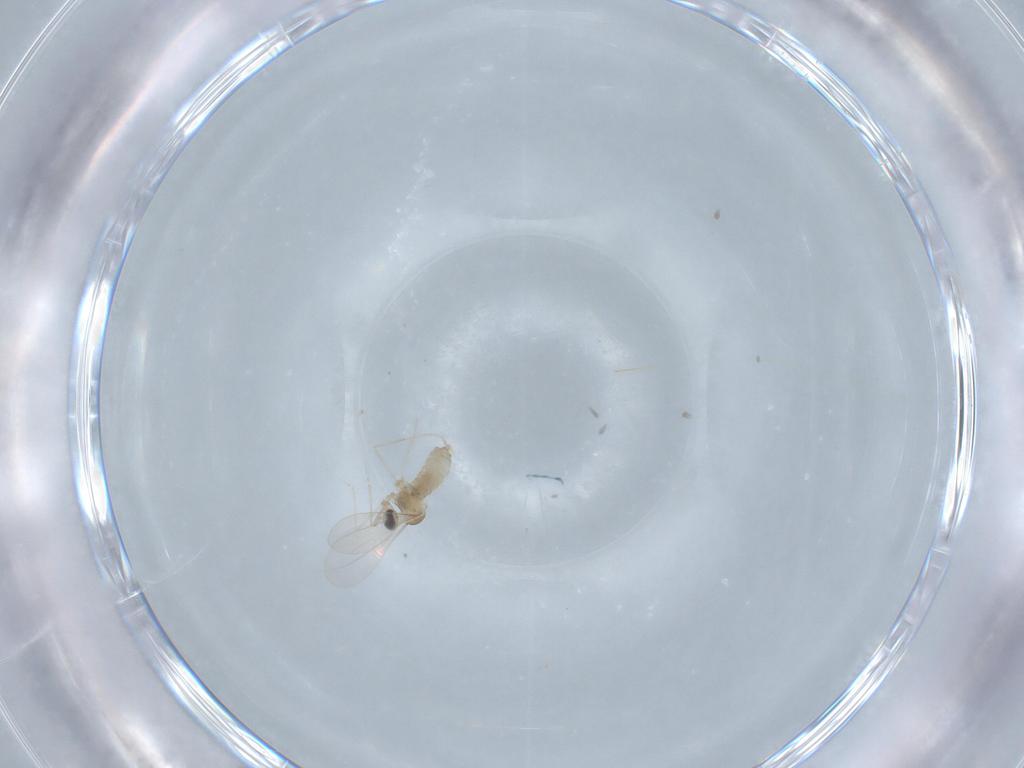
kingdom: Animalia
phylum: Arthropoda
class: Insecta
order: Diptera
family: Cecidomyiidae
